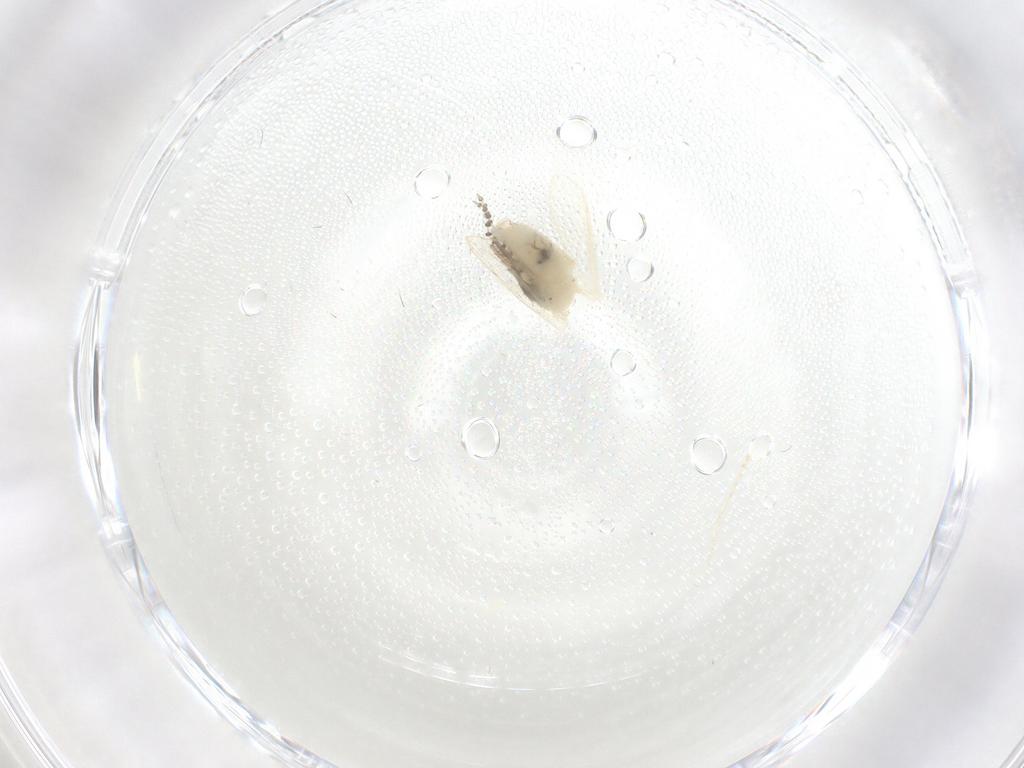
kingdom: Animalia
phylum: Arthropoda
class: Insecta
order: Diptera
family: Psychodidae
